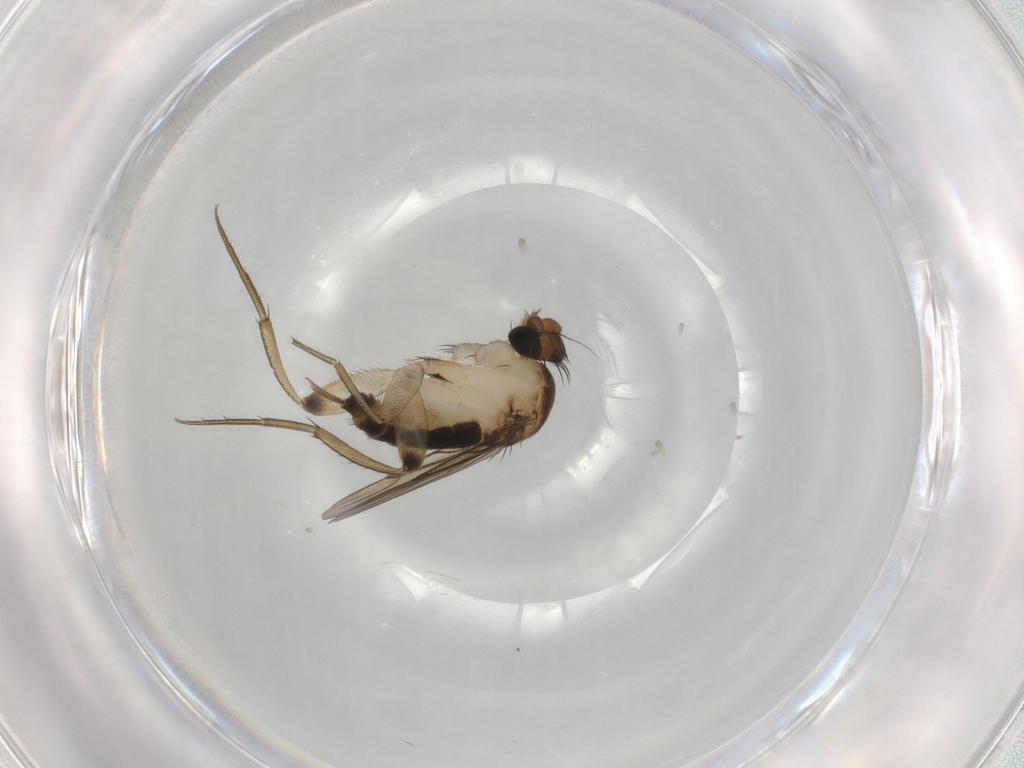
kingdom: Animalia
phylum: Arthropoda
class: Insecta
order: Diptera
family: Phoridae
